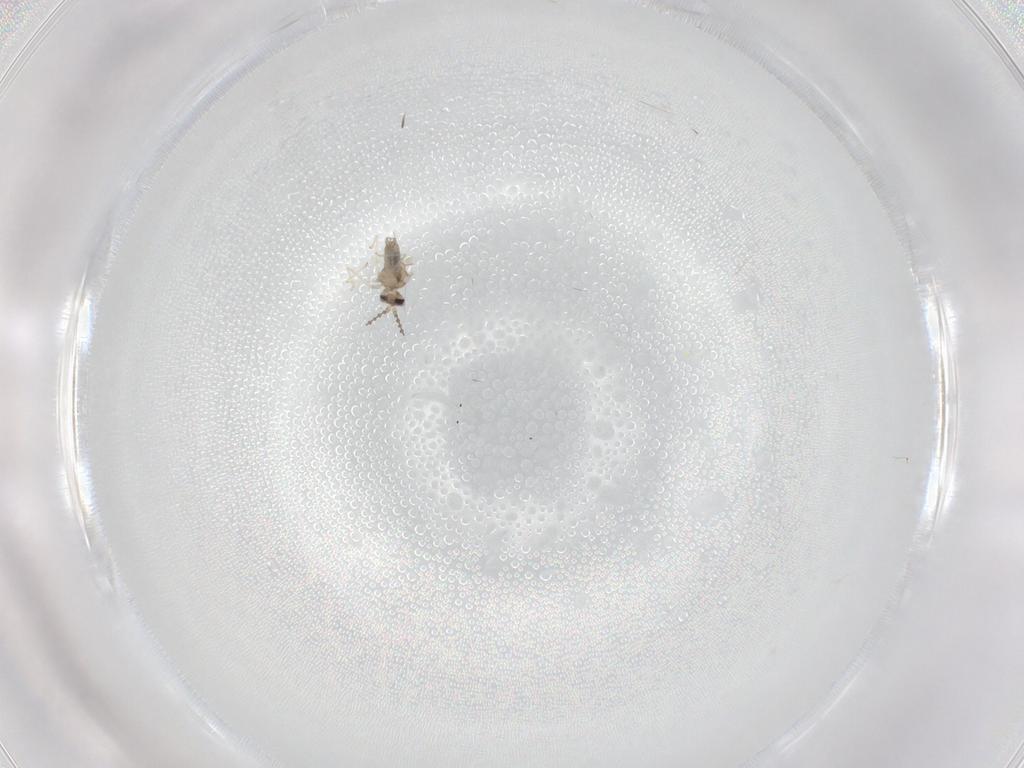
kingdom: Animalia
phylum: Arthropoda
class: Insecta
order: Diptera
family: Cecidomyiidae
